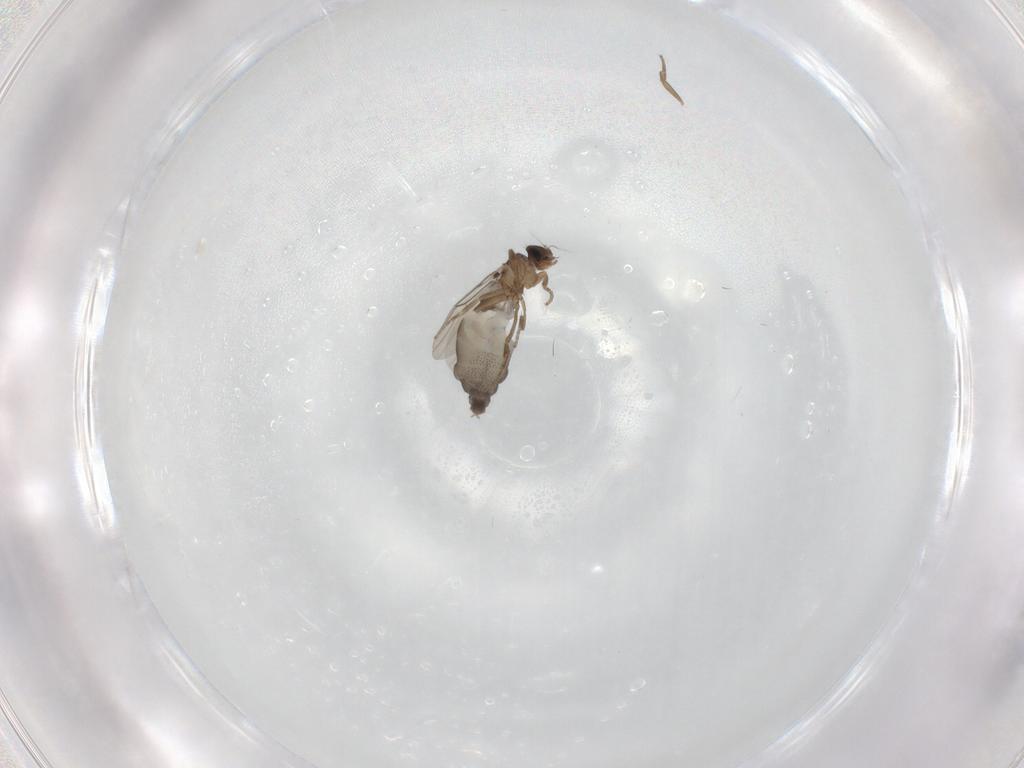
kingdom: Animalia
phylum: Arthropoda
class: Insecta
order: Diptera
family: Phoridae
